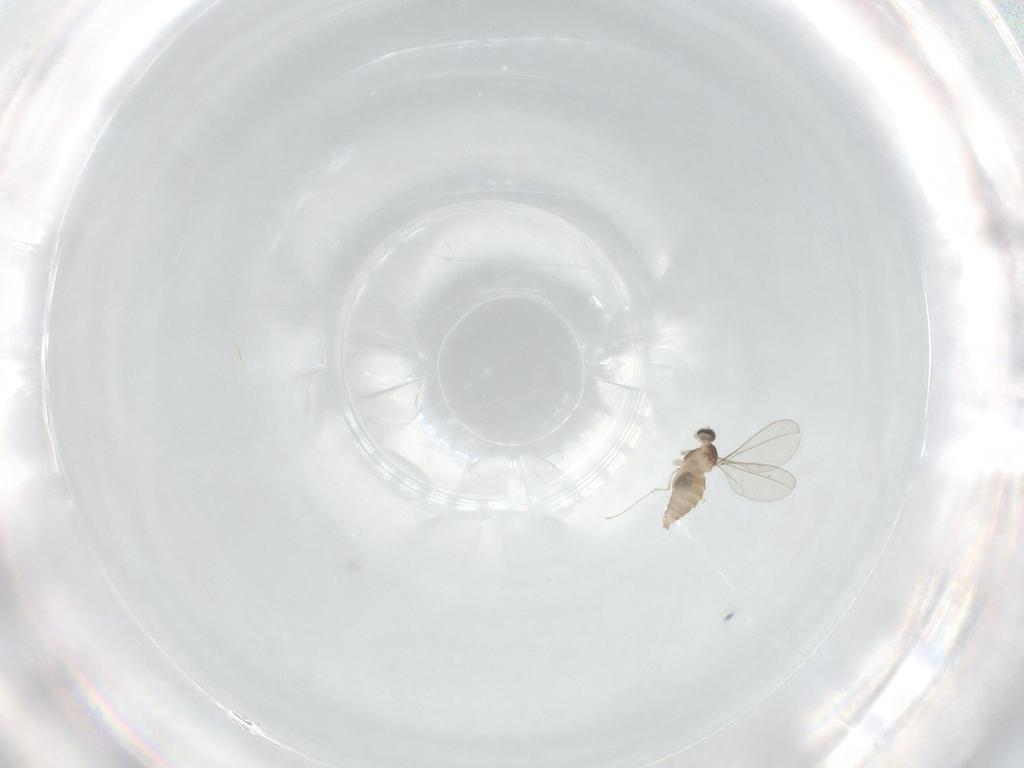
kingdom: Animalia
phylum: Arthropoda
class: Insecta
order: Diptera
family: Cecidomyiidae
